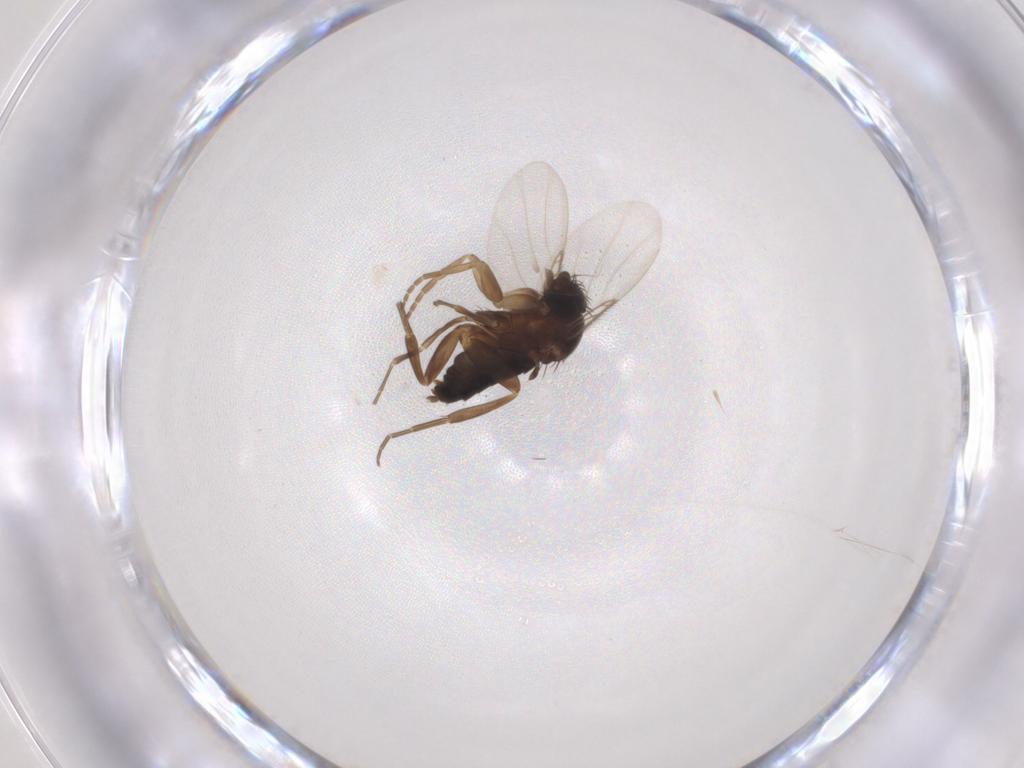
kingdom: Animalia
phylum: Arthropoda
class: Insecta
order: Diptera
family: Phoridae
